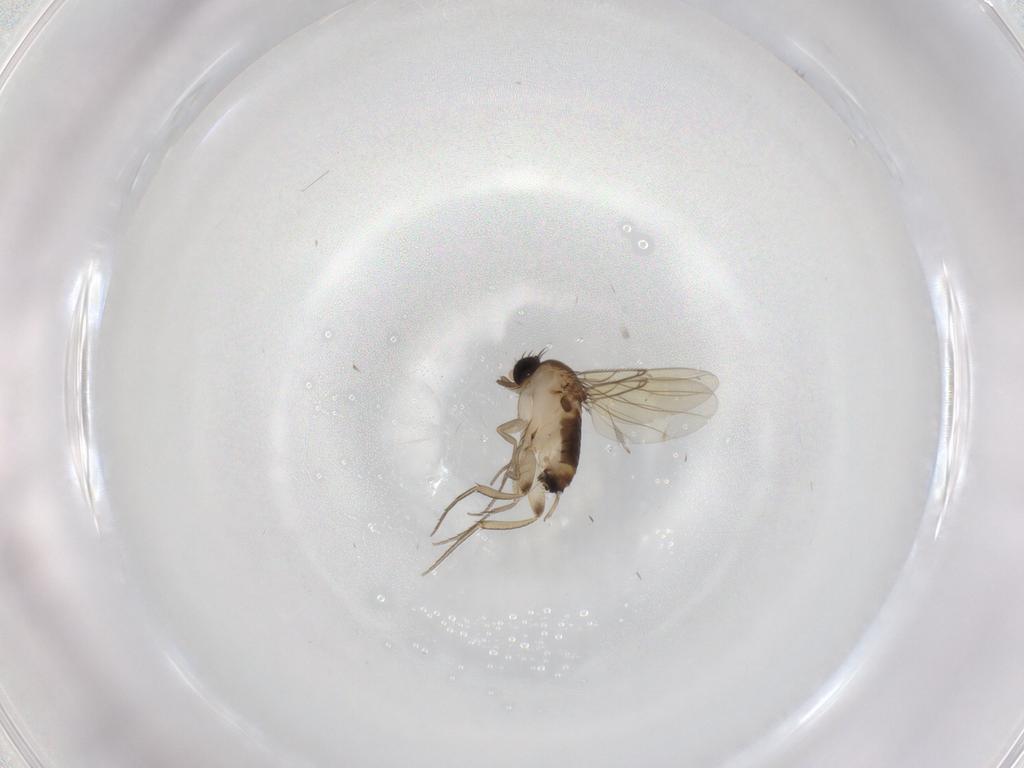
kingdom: Animalia
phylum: Arthropoda
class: Insecta
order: Diptera
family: Phoridae
